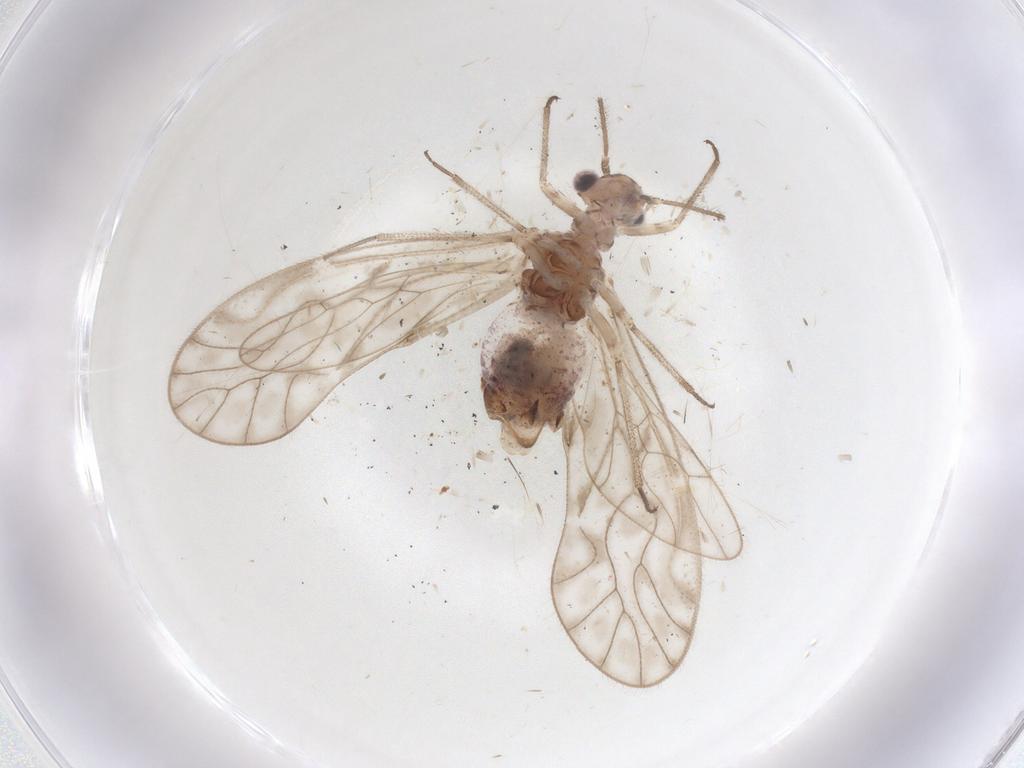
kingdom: Animalia
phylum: Arthropoda
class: Insecta
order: Psocodea
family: Trichopsocidae
